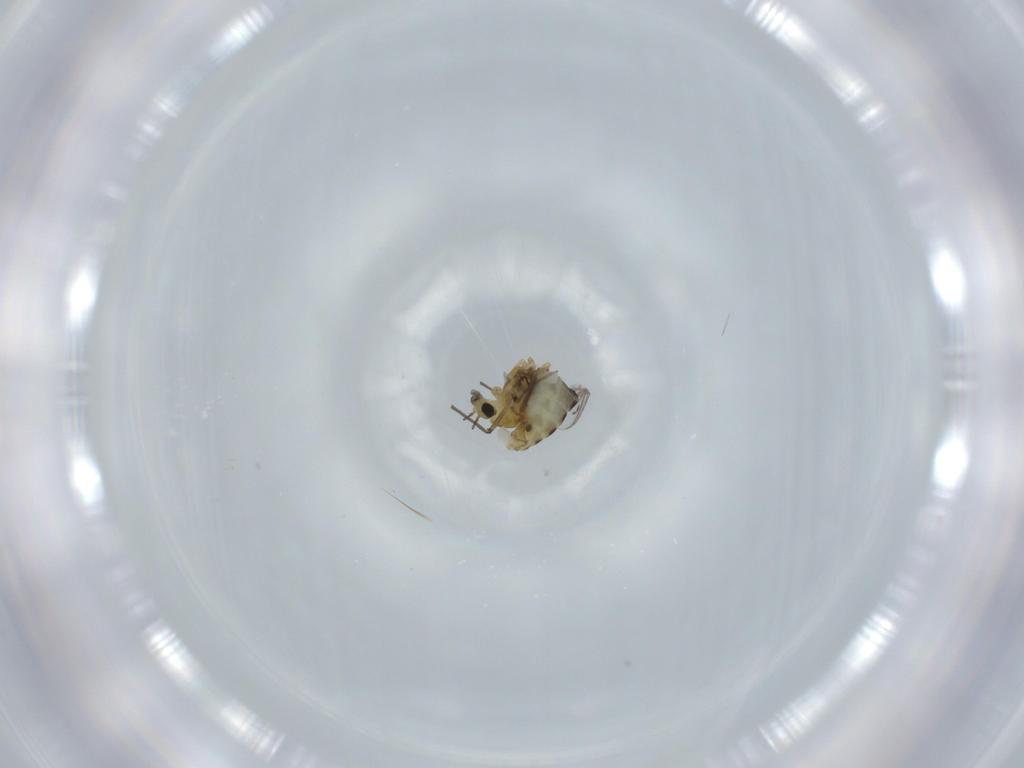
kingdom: Animalia
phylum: Arthropoda
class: Insecta
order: Diptera
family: Chironomidae
